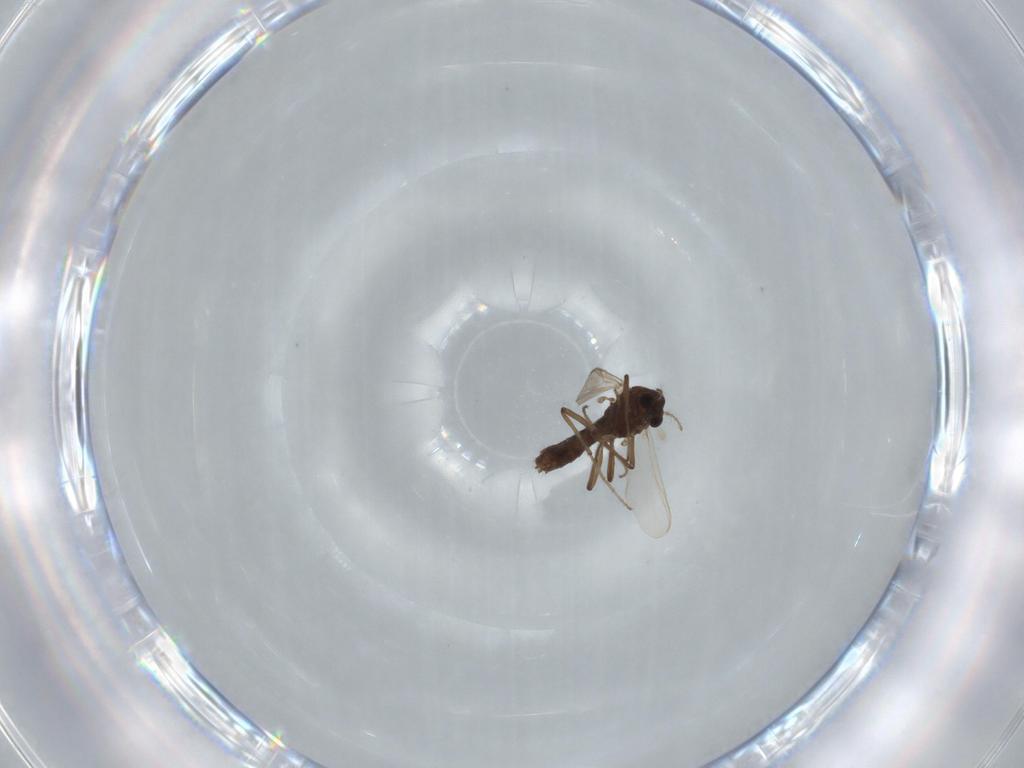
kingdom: Animalia
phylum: Arthropoda
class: Insecta
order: Diptera
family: Chironomidae
